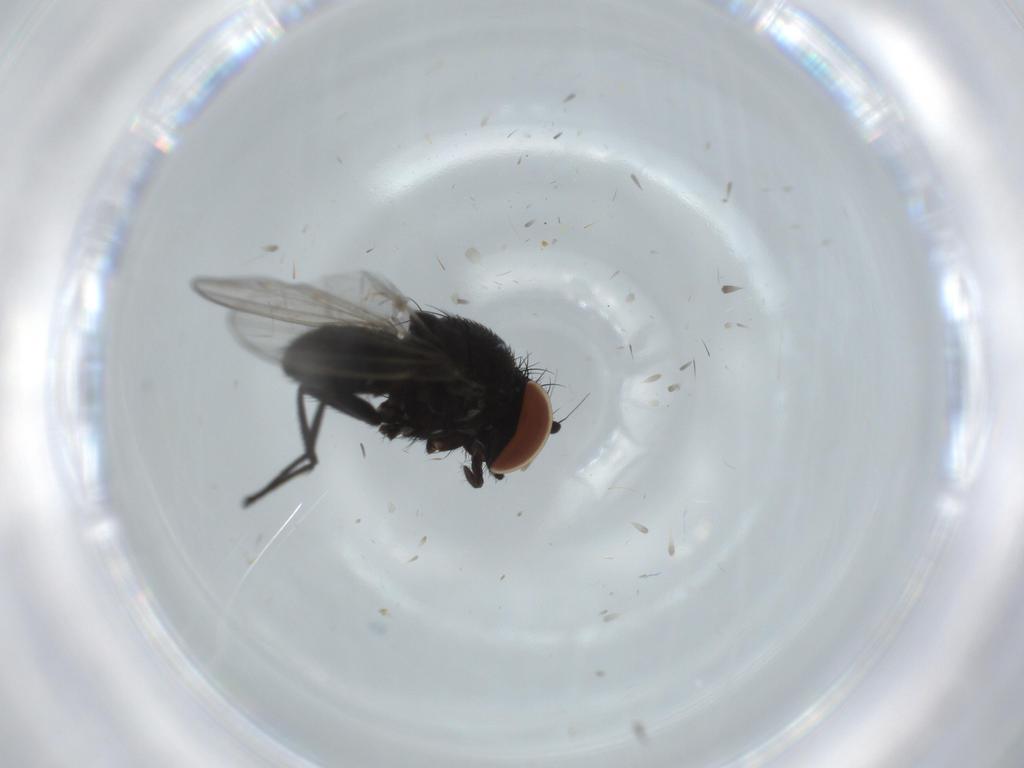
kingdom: Animalia
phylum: Arthropoda
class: Insecta
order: Diptera
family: Milichiidae
